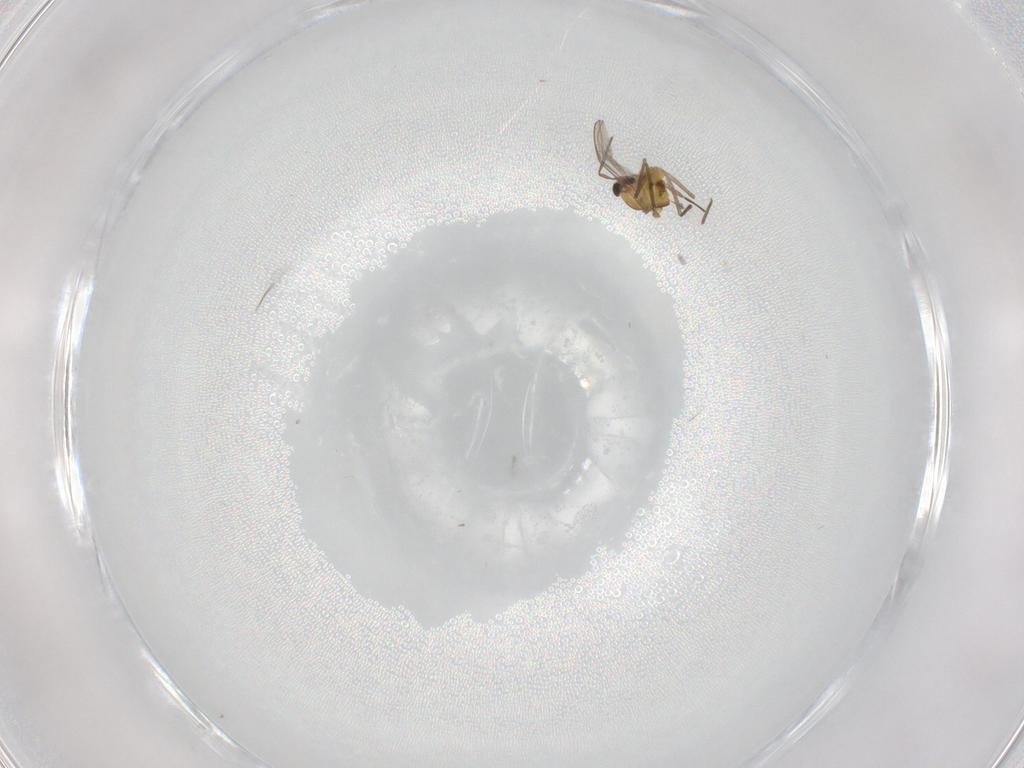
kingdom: Animalia
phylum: Arthropoda
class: Insecta
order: Diptera
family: Chironomidae
